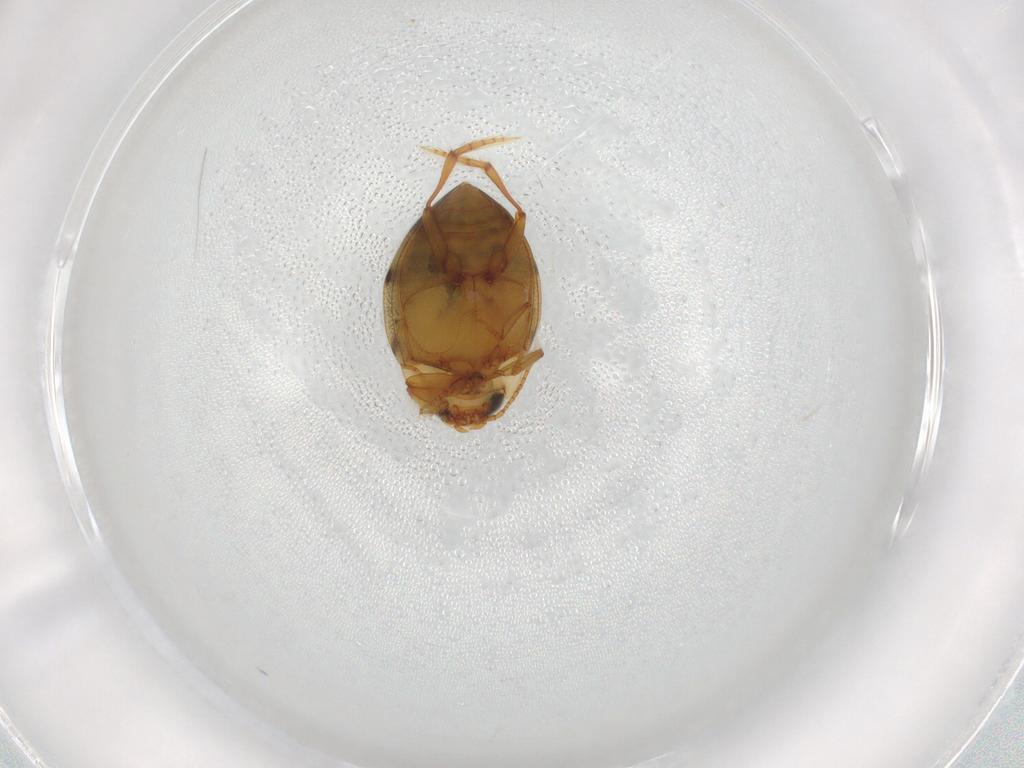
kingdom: Animalia
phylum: Arthropoda
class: Insecta
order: Coleoptera
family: Dytiscidae
